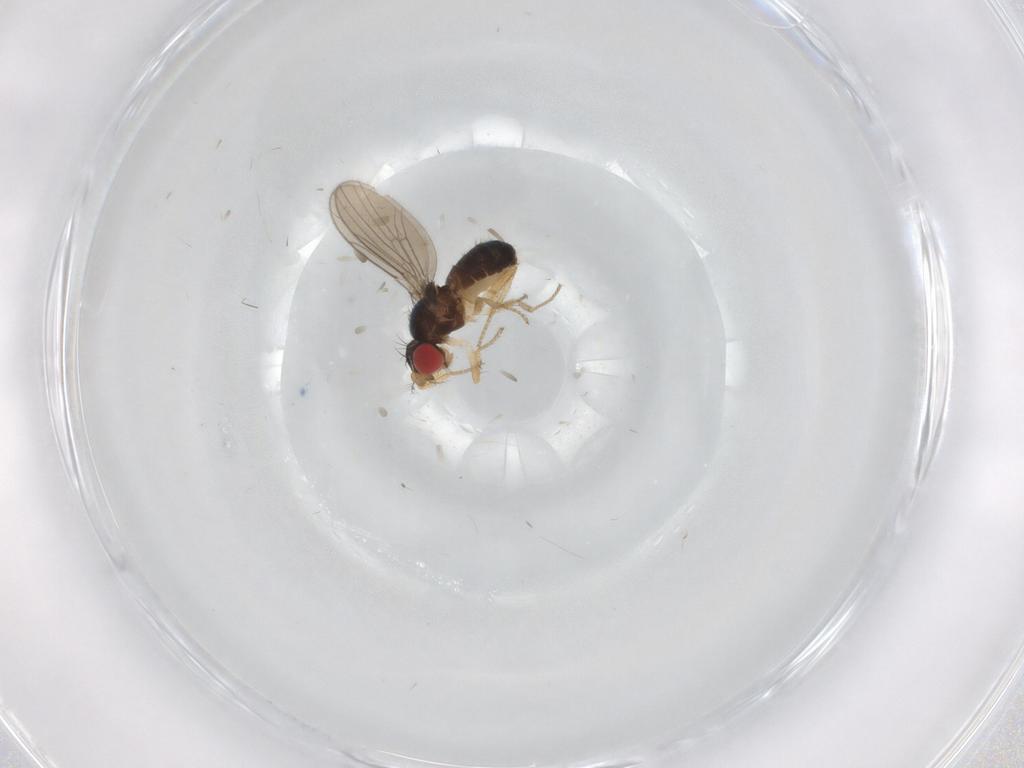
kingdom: Animalia
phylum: Arthropoda
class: Insecta
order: Diptera
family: Drosophilidae
